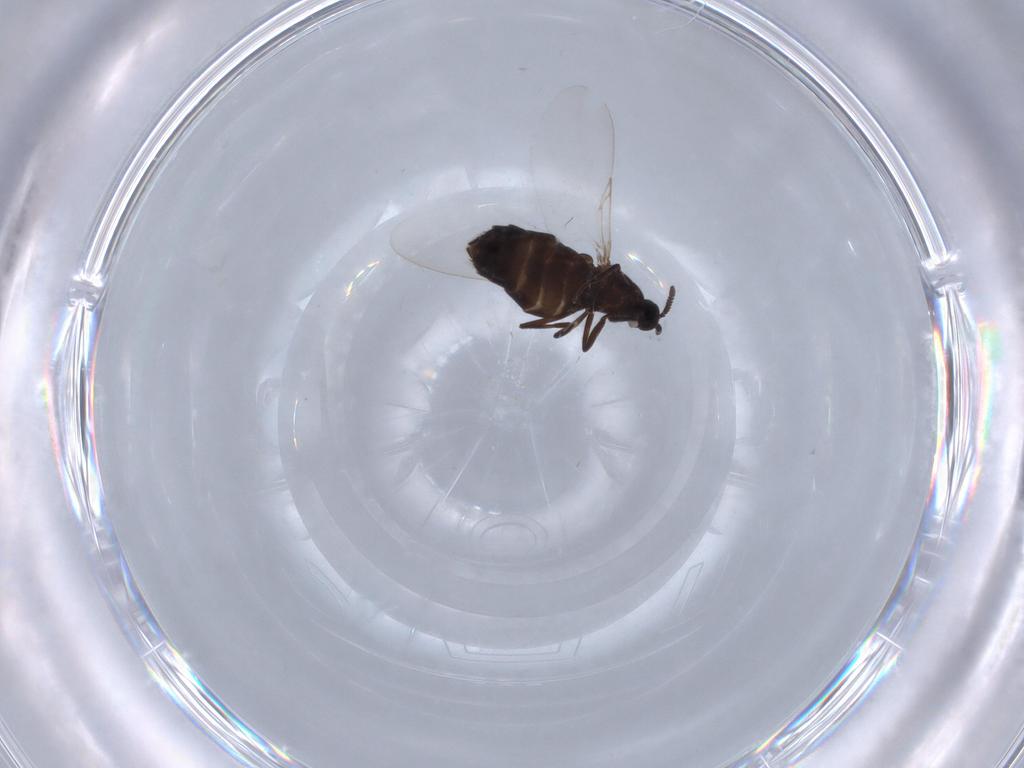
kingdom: Animalia
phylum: Arthropoda
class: Insecta
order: Diptera
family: Scatopsidae
